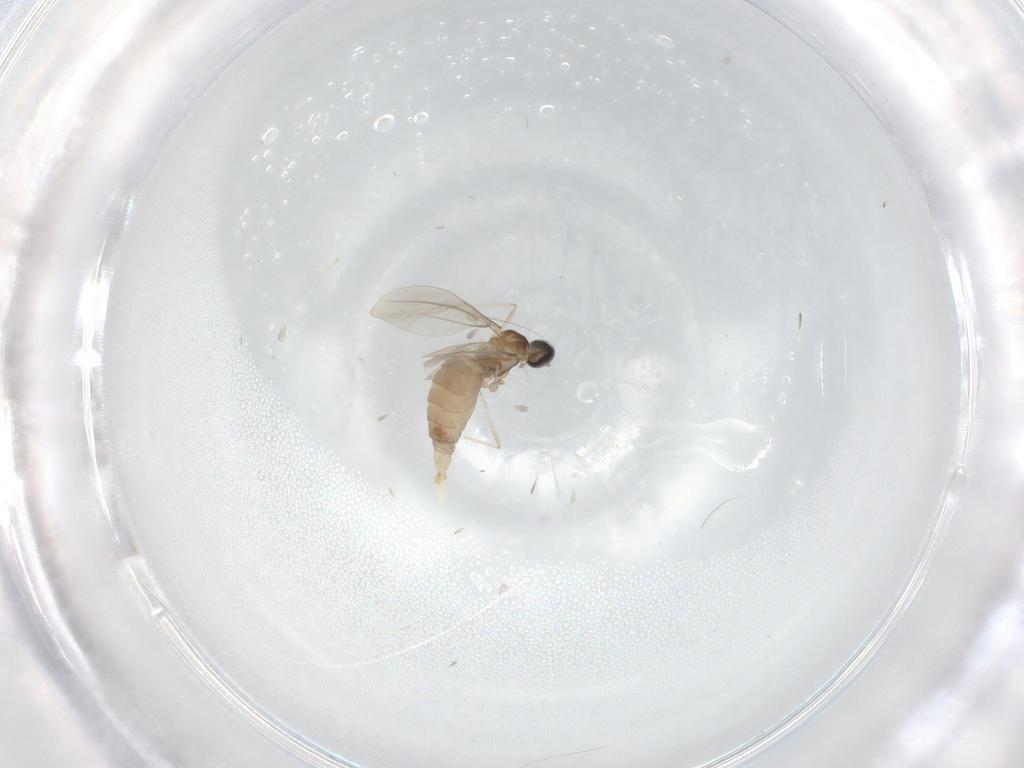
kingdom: Animalia
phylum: Arthropoda
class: Insecta
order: Diptera
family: Cecidomyiidae
